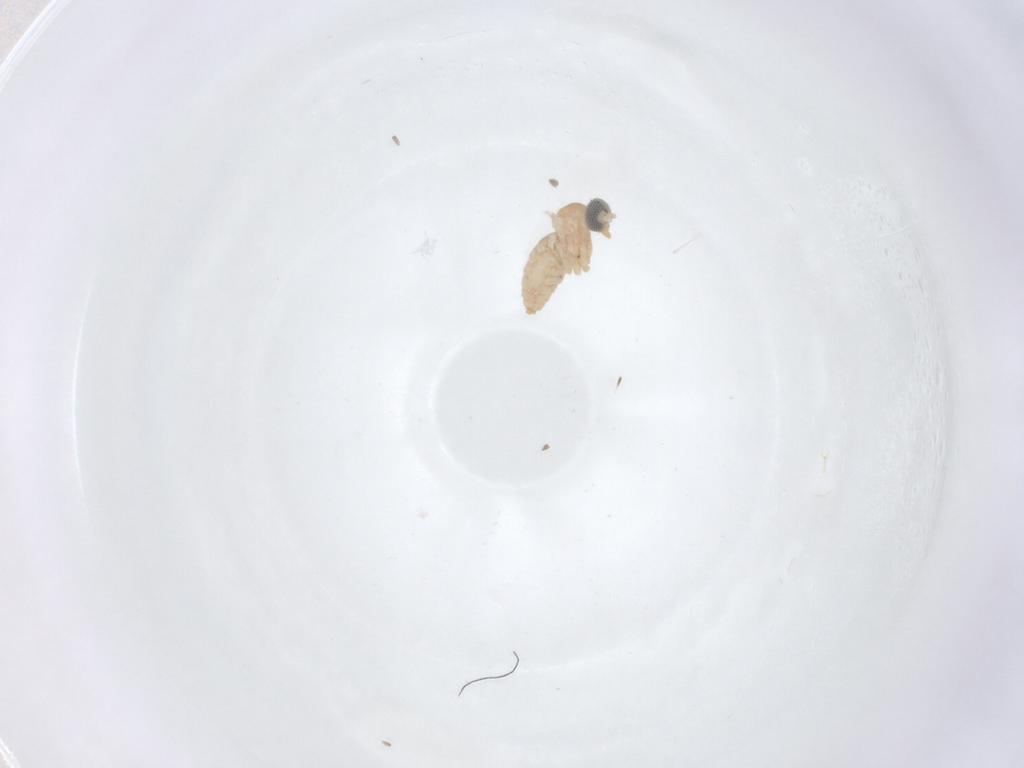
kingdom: Animalia
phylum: Arthropoda
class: Insecta
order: Diptera
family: Cecidomyiidae
